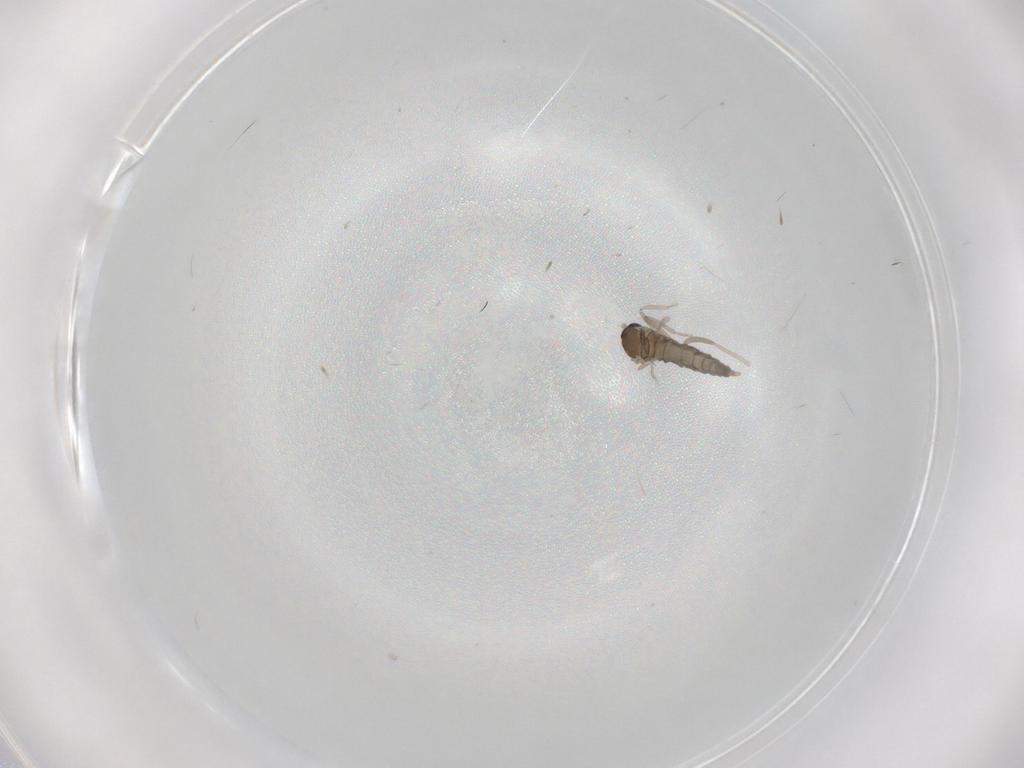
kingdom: Animalia
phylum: Arthropoda
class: Insecta
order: Diptera
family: Cecidomyiidae
